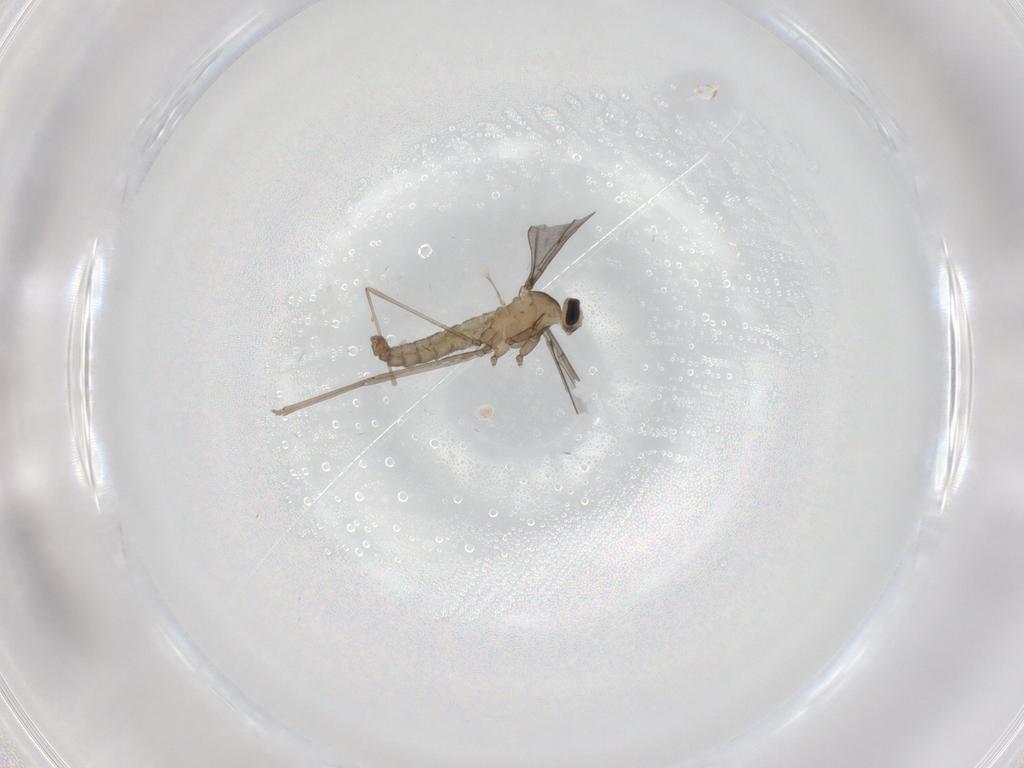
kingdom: Animalia
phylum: Arthropoda
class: Insecta
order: Diptera
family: Cecidomyiidae
